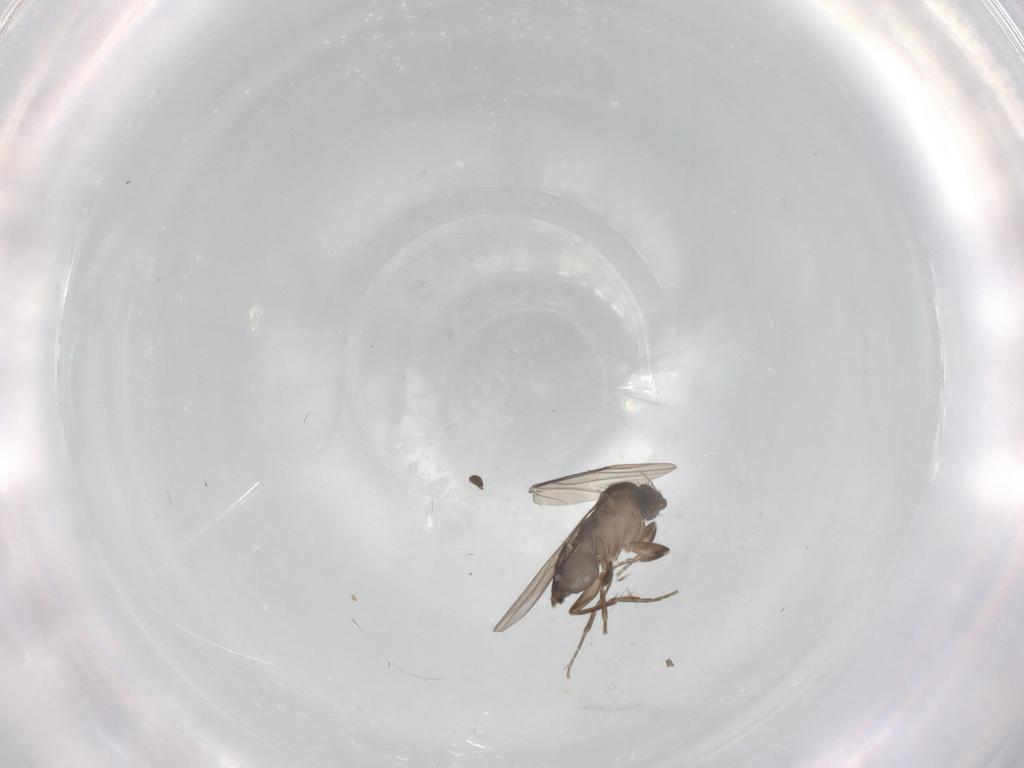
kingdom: Animalia
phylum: Arthropoda
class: Insecta
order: Diptera
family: Phoridae
